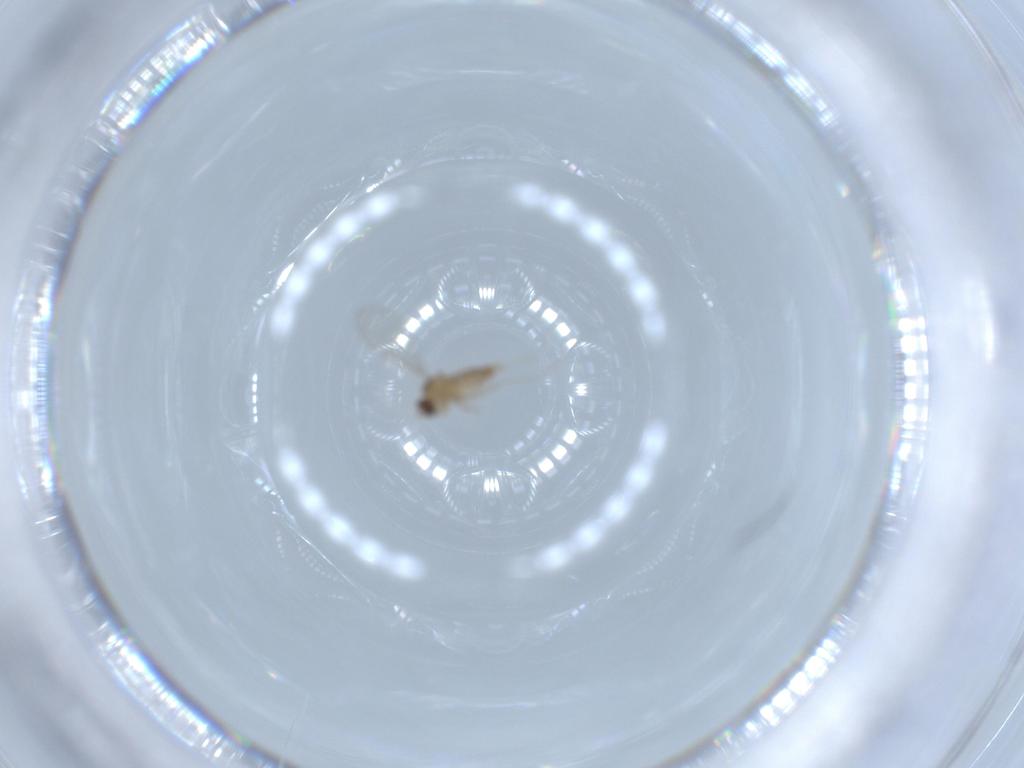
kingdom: Animalia
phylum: Arthropoda
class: Insecta
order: Diptera
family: Cecidomyiidae
